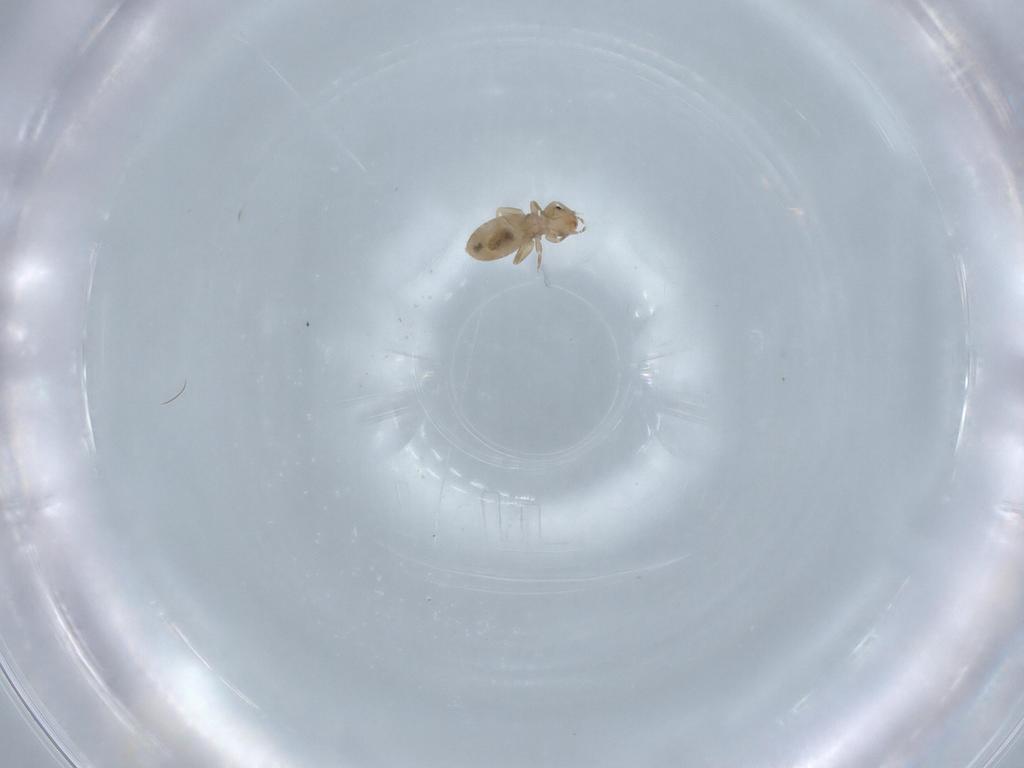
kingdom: Animalia
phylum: Arthropoda
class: Insecta
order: Psocodea
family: Liposcelididae
